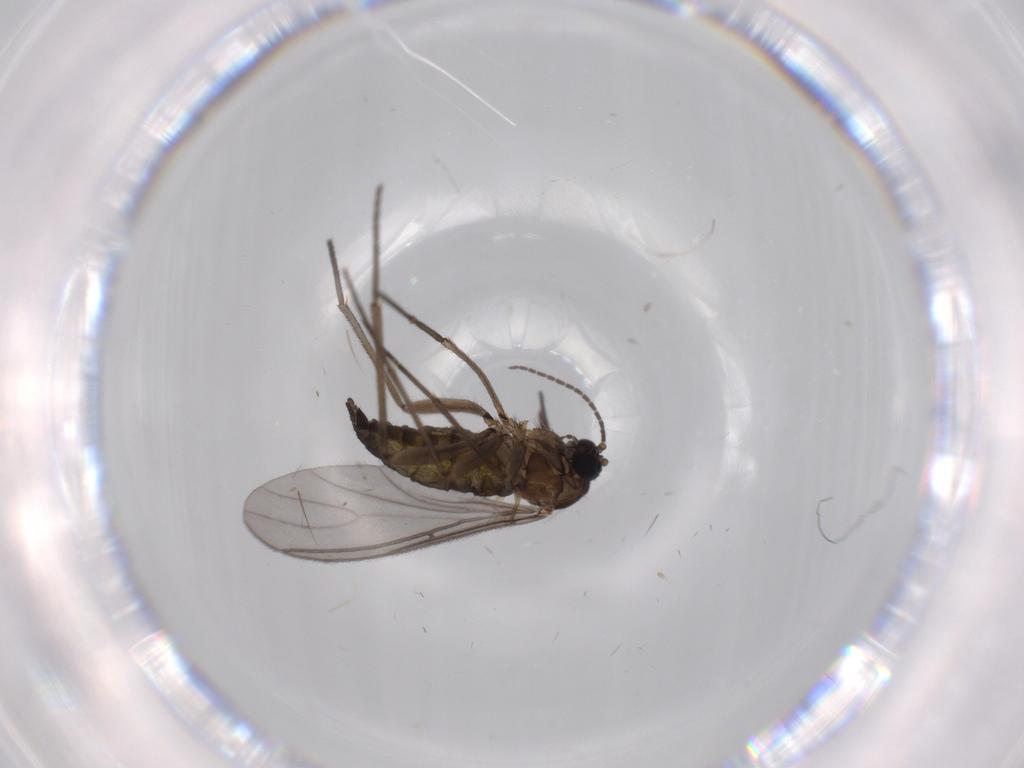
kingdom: Animalia
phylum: Arthropoda
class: Insecta
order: Diptera
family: Sciaridae
